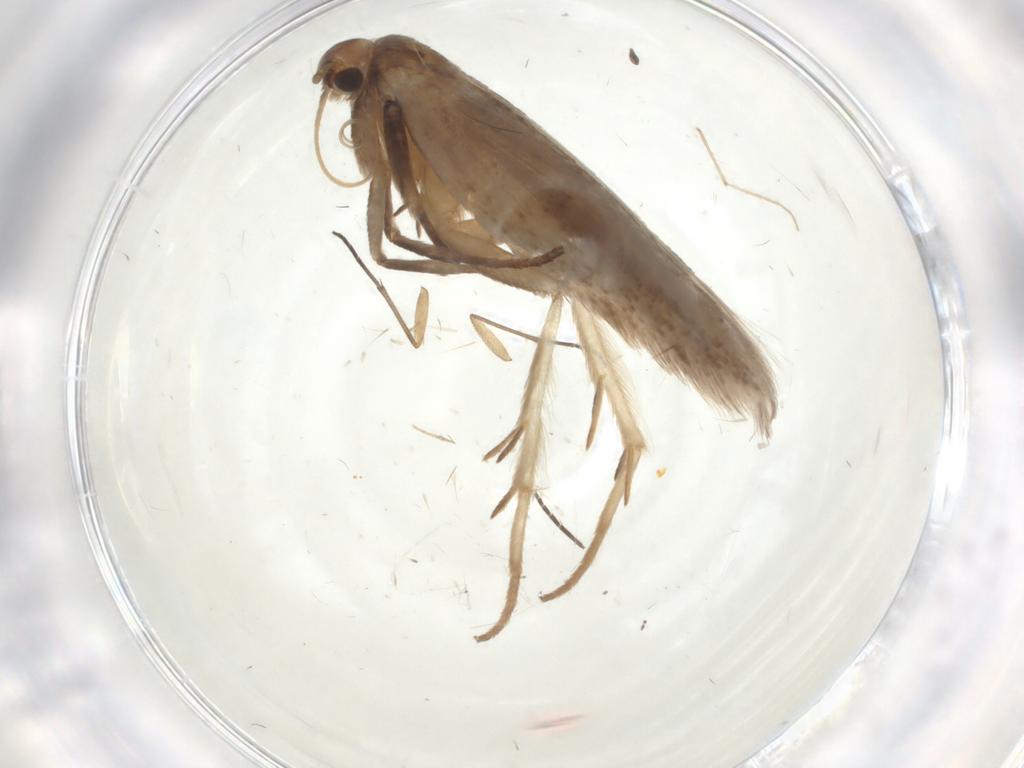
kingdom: Animalia
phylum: Arthropoda
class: Insecta
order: Lepidoptera
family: Gelechiidae
